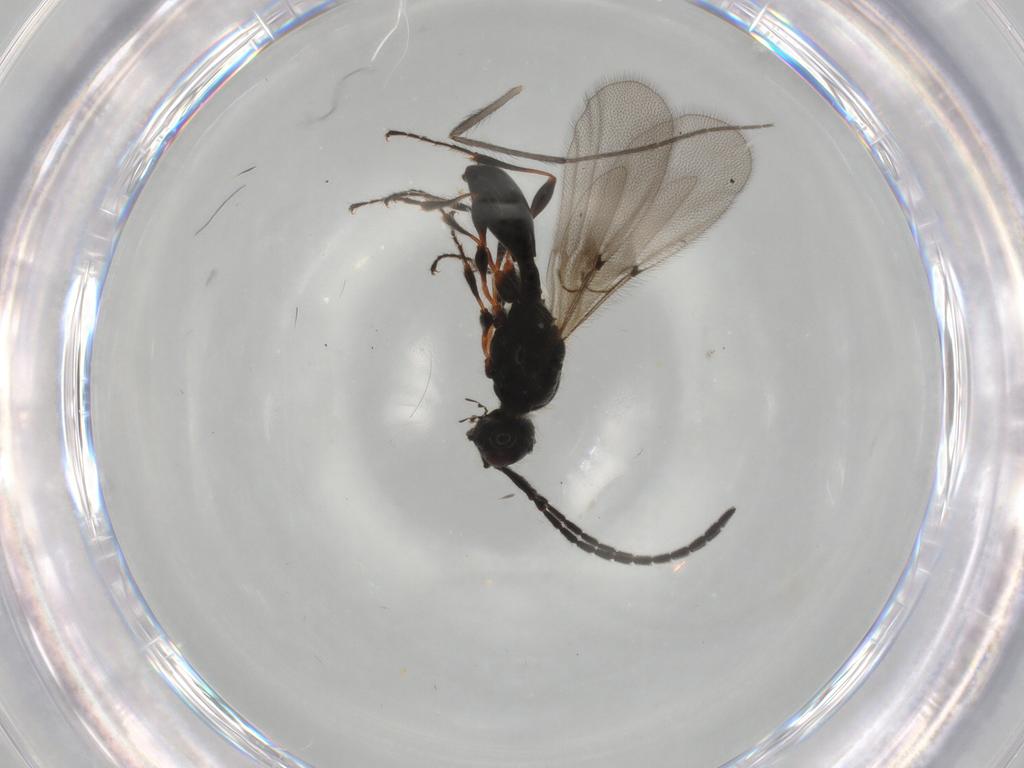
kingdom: Animalia
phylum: Arthropoda
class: Insecta
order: Hymenoptera
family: Diapriidae
